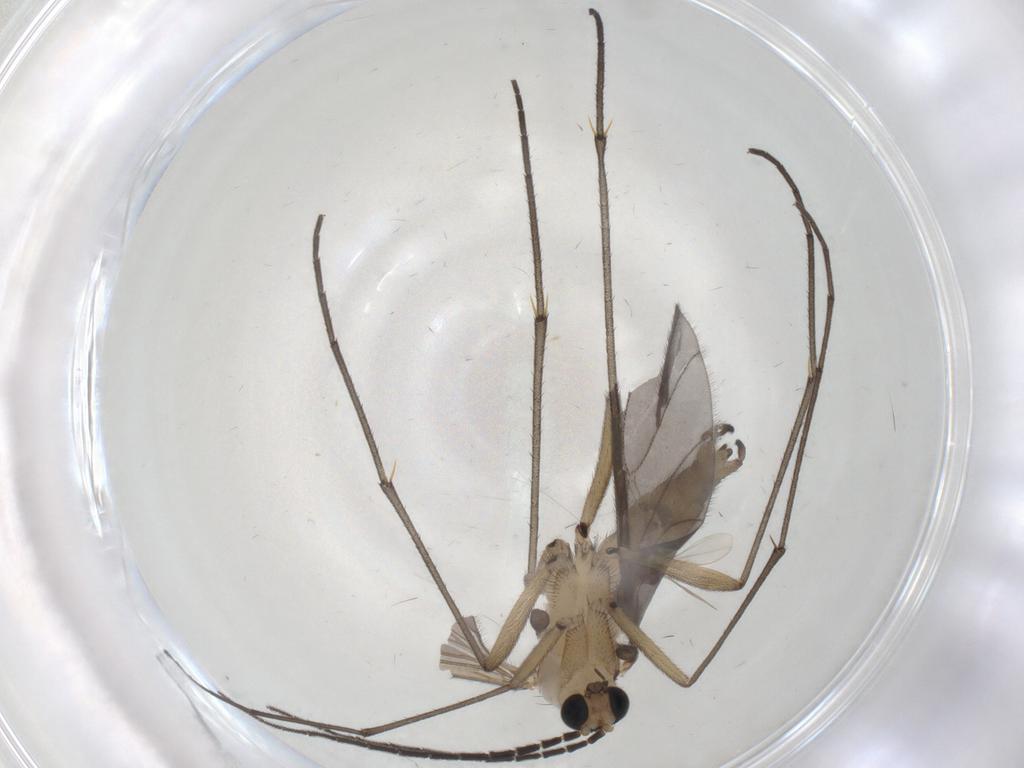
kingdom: Animalia
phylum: Arthropoda
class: Insecta
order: Diptera
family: Sciaridae
